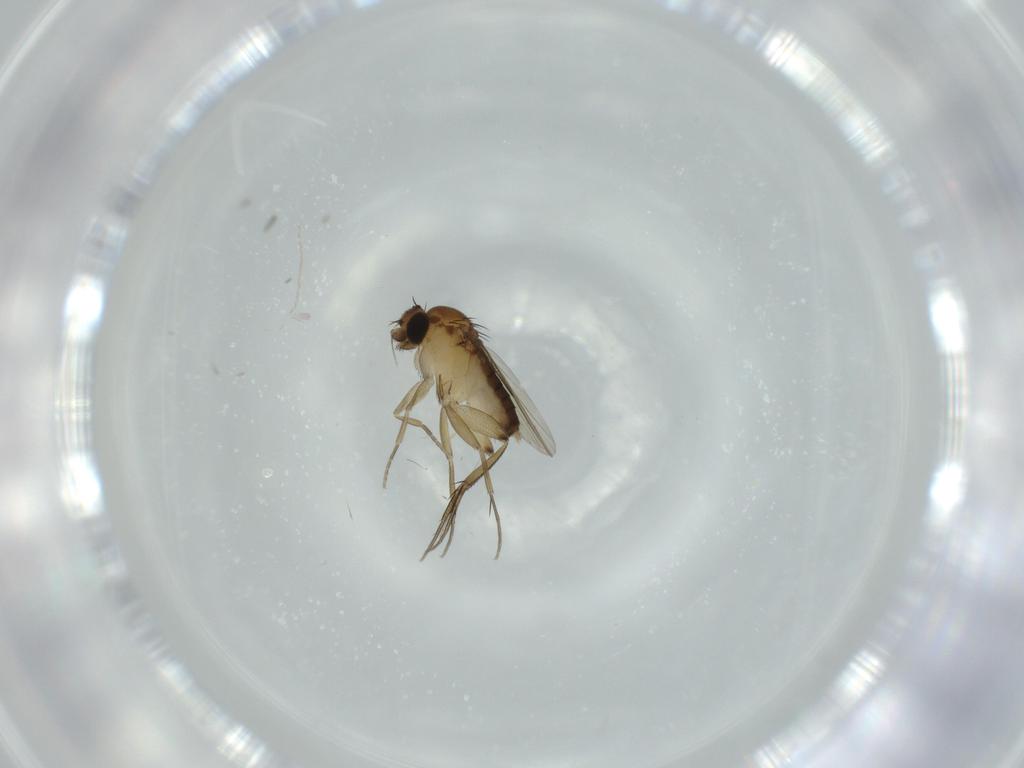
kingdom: Animalia
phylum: Arthropoda
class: Insecta
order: Diptera
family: Phoridae
